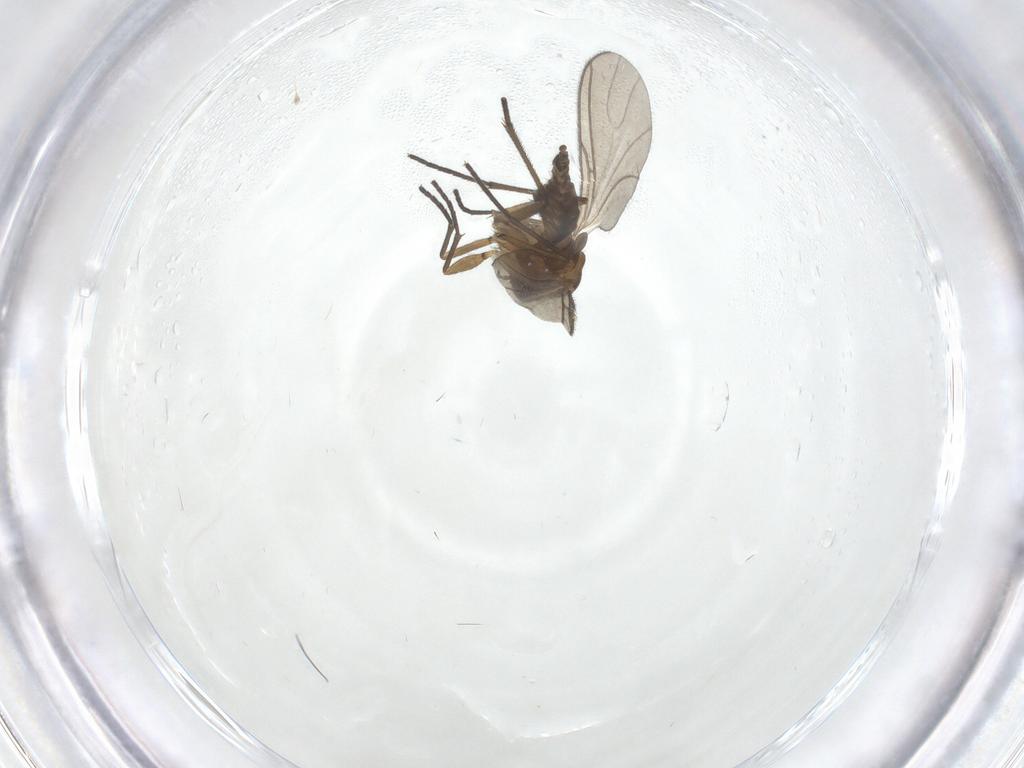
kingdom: Animalia
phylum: Arthropoda
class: Insecta
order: Diptera
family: Sciaridae
